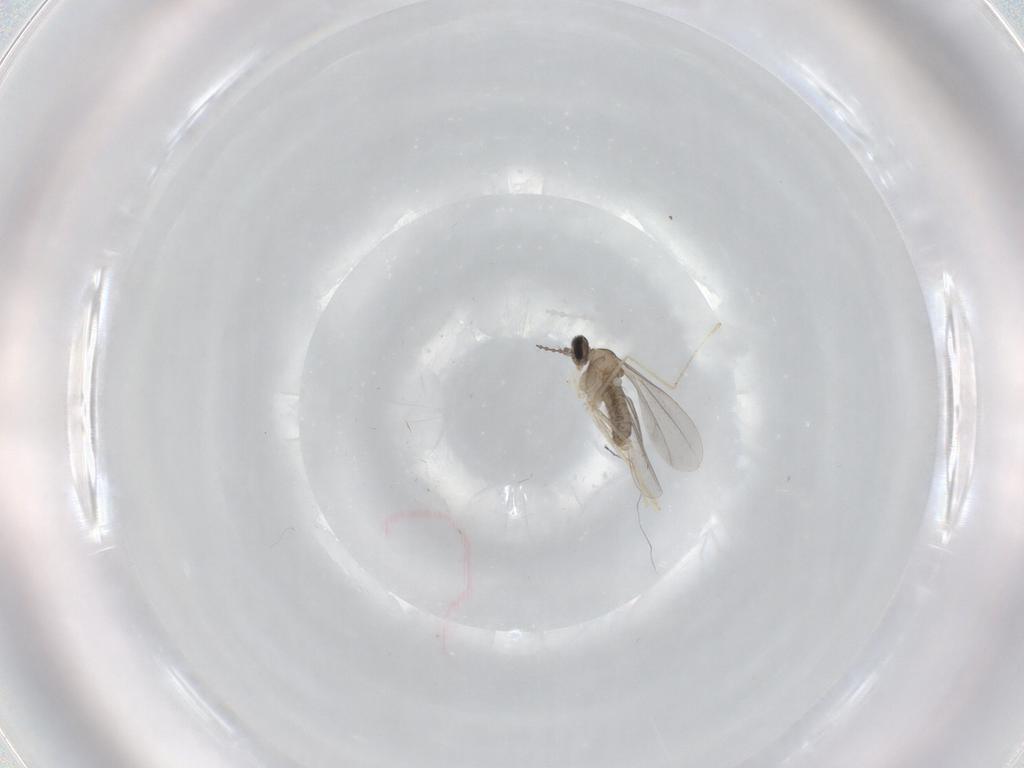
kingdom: Animalia
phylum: Arthropoda
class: Insecta
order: Diptera
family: Cecidomyiidae
